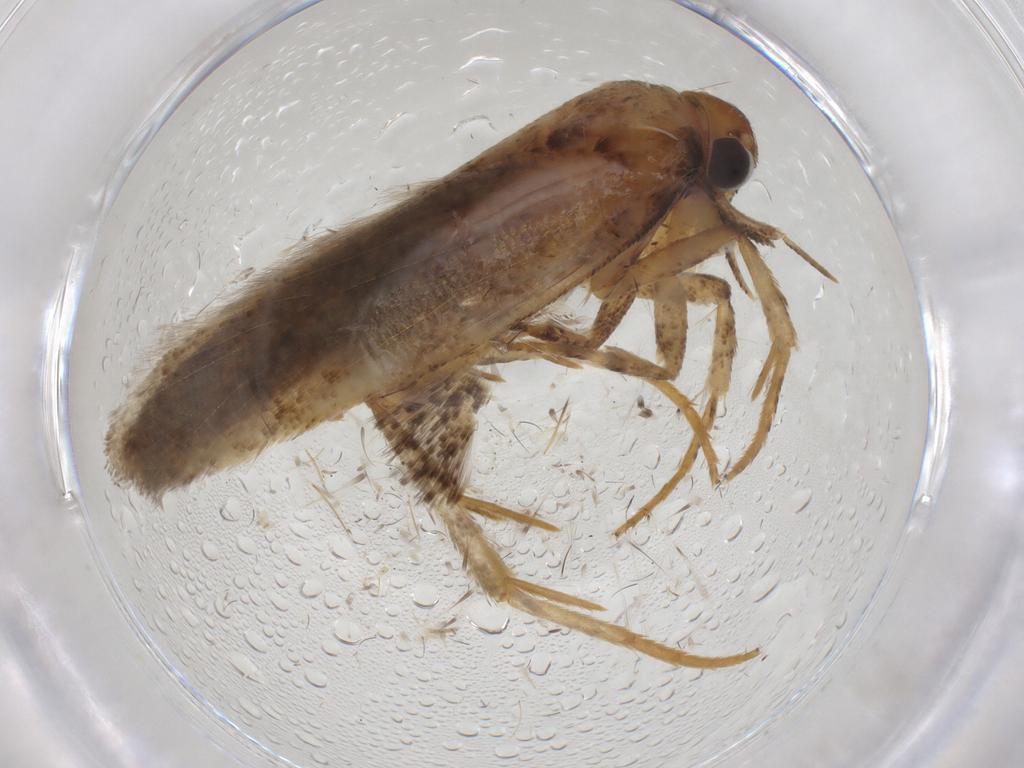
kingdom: Animalia
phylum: Arthropoda
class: Insecta
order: Lepidoptera
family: Gelechiidae
